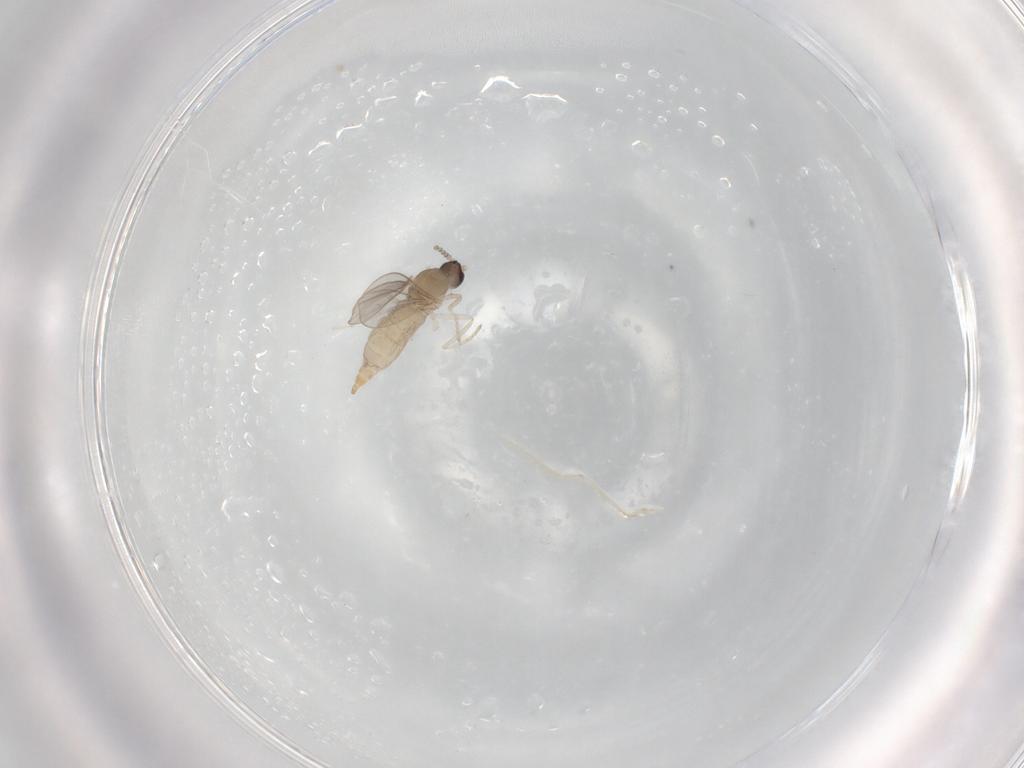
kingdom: Animalia
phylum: Arthropoda
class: Insecta
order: Diptera
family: Cecidomyiidae
